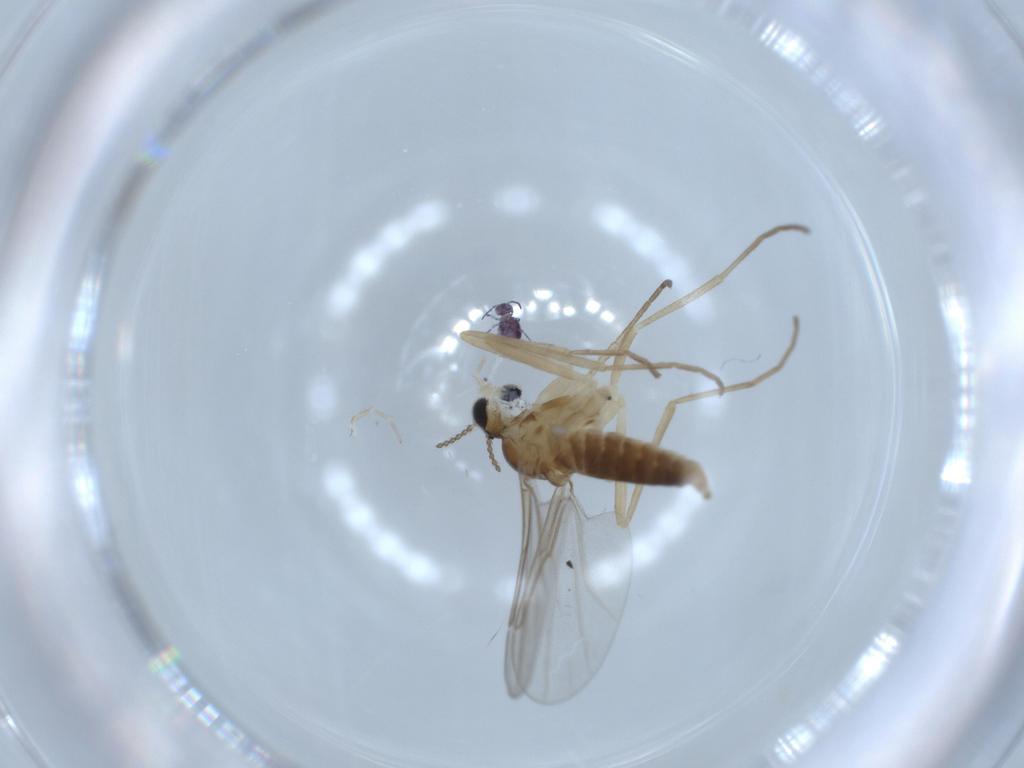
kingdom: Animalia
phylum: Arthropoda
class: Insecta
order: Diptera
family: Cecidomyiidae
